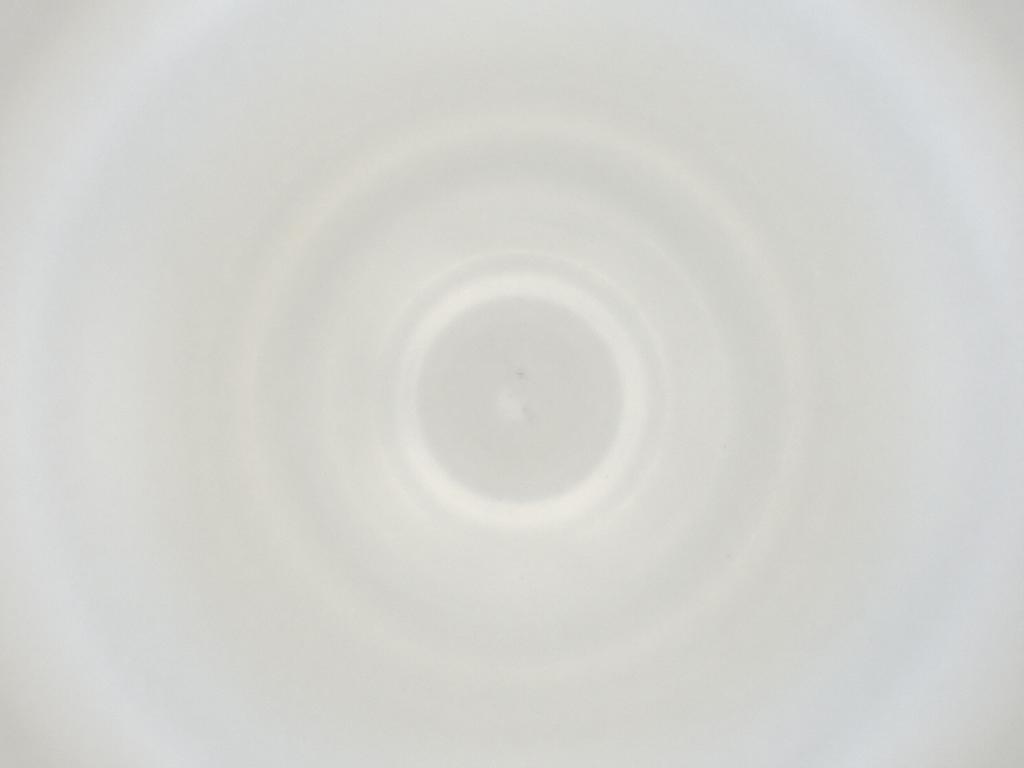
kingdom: Animalia
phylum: Arthropoda
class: Insecta
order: Diptera
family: Cecidomyiidae
